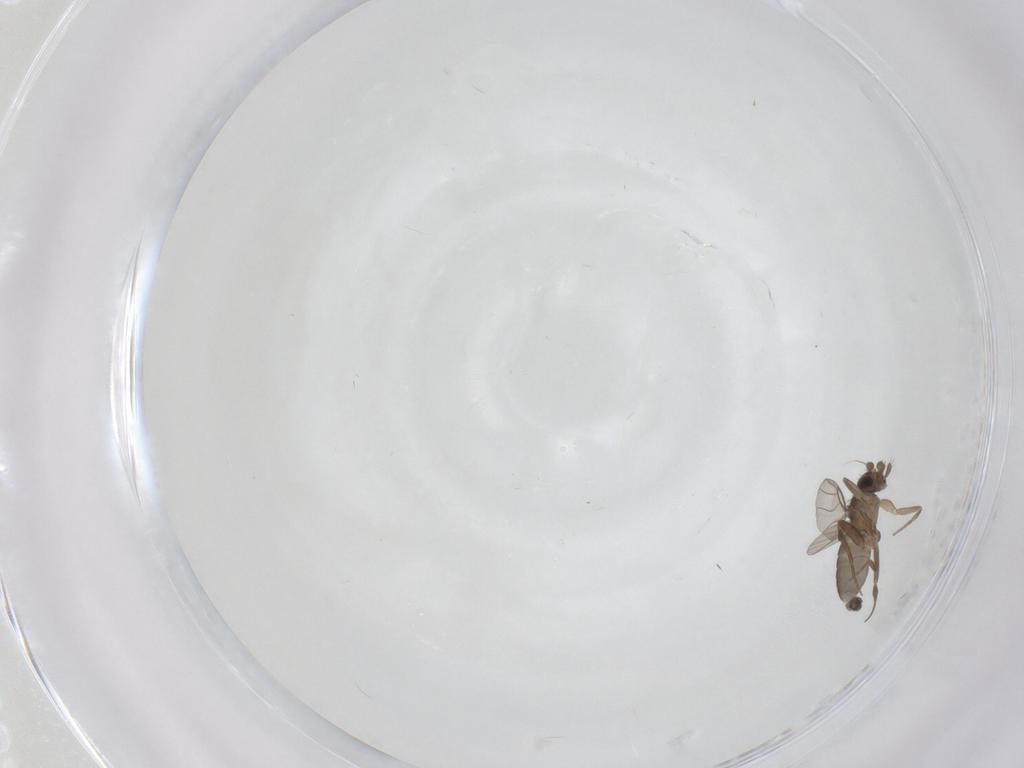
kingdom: Animalia
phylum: Arthropoda
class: Insecta
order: Diptera
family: Phoridae
